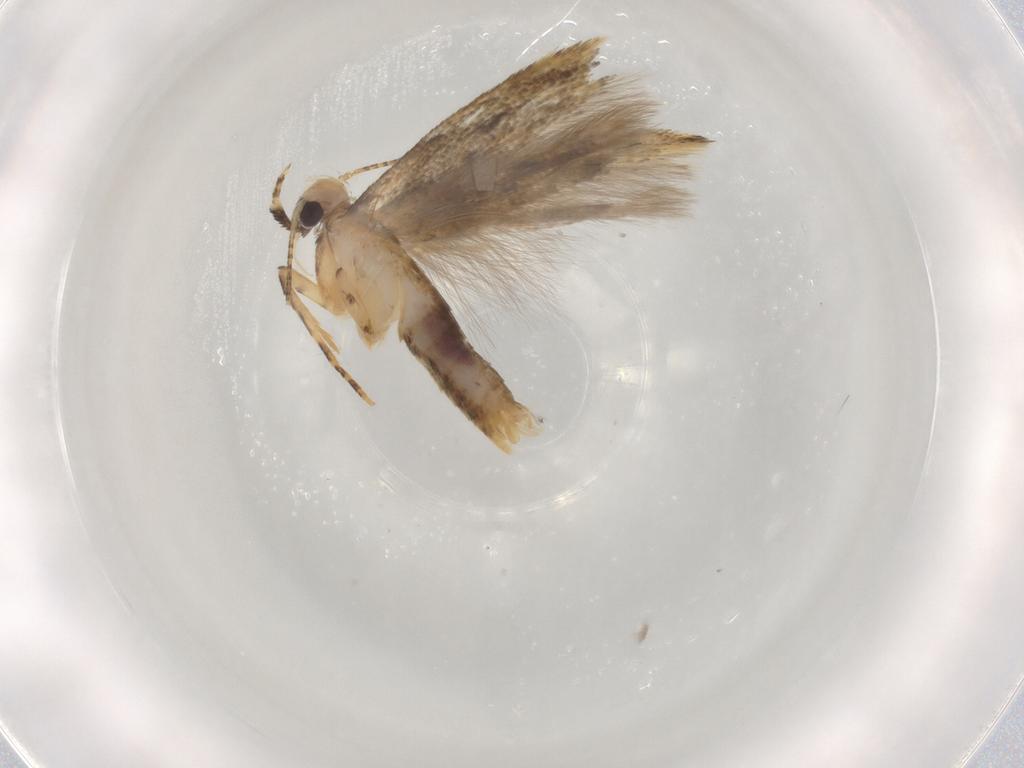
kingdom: Animalia
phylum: Arthropoda
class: Insecta
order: Lepidoptera
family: Gelechiidae
